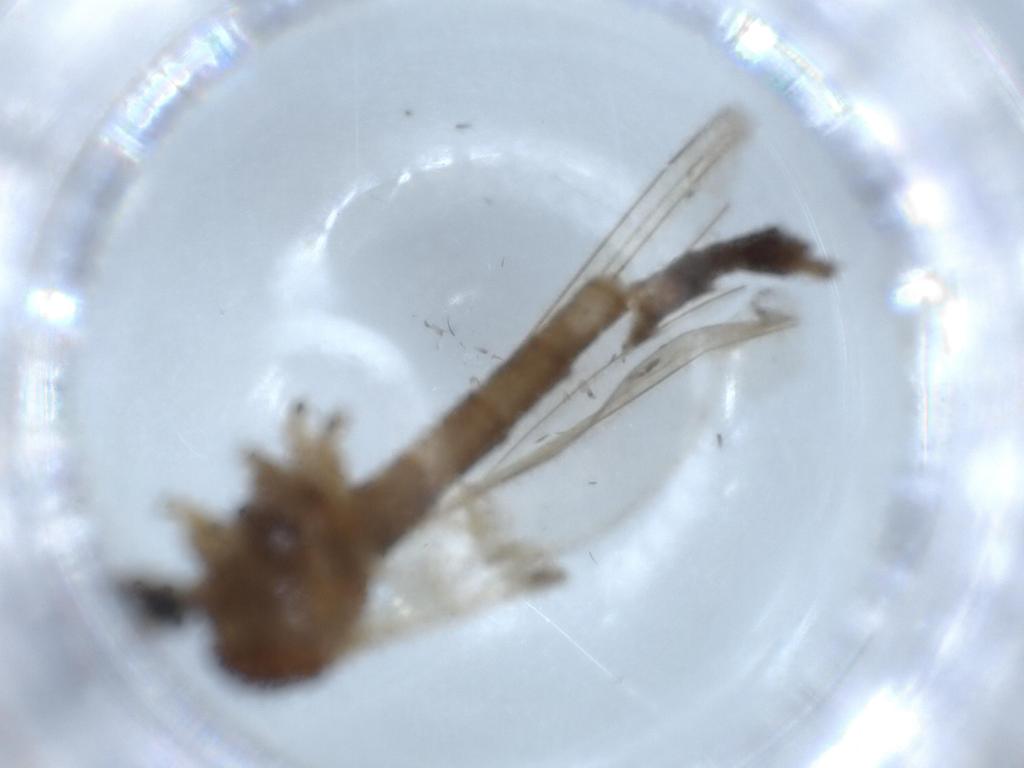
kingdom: Animalia
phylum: Arthropoda
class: Insecta
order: Diptera
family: Trichoceridae
